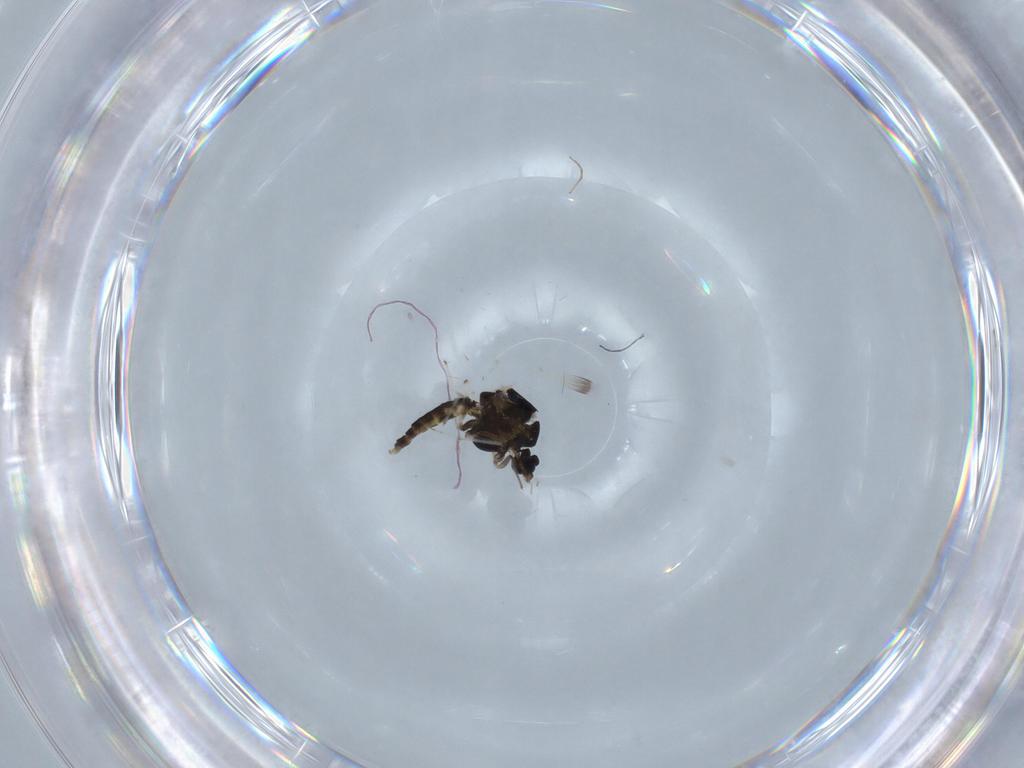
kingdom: Animalia
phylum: Arthropoda
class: Insecta
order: Diptera
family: Chironomidae
